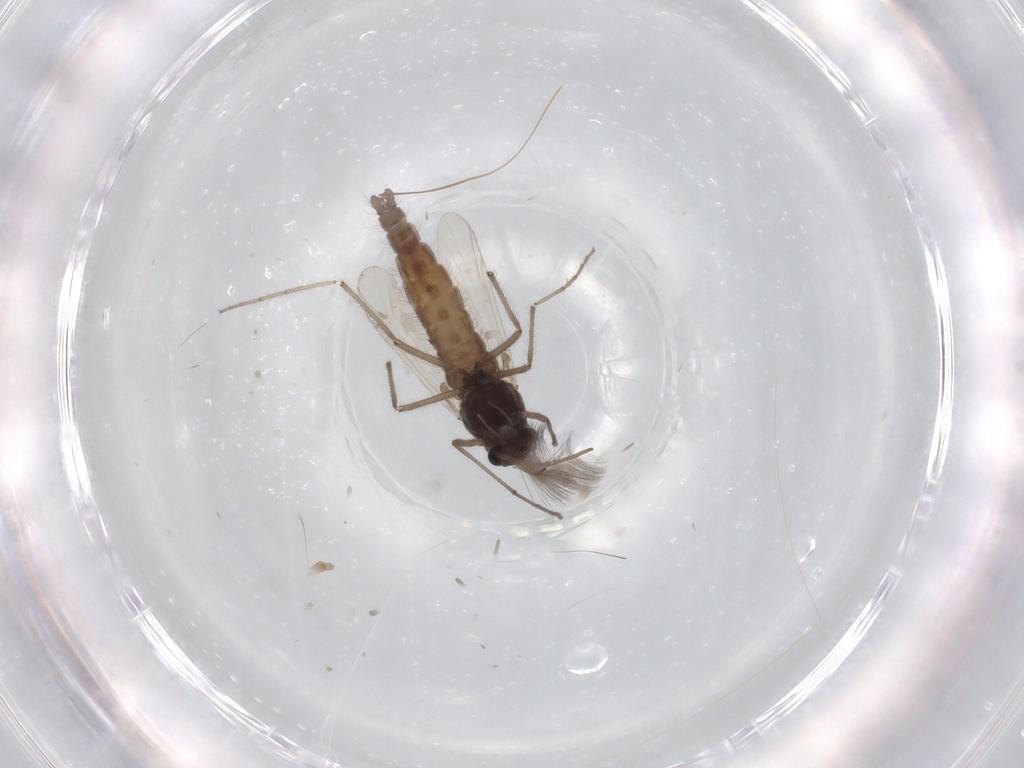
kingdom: Animalia
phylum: Arthropoda
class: Insecta
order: Diptera
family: Chironomidae
